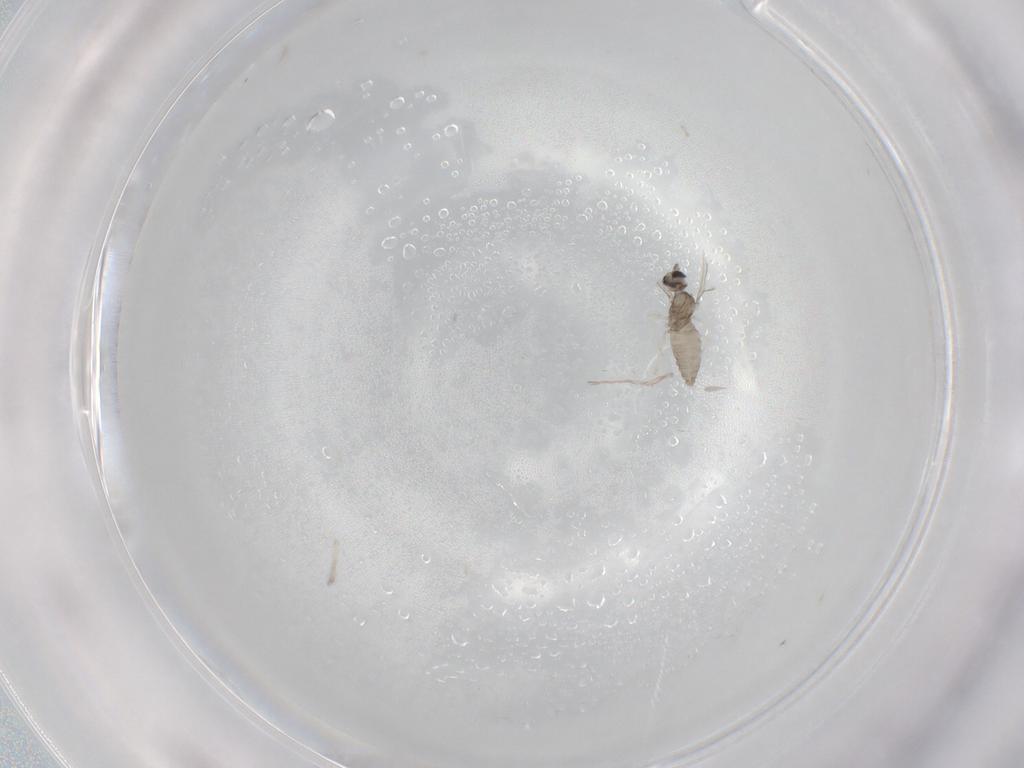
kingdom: Animalia
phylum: Arthropoda
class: Insecta
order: Diptera
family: Cecidomyiidae
